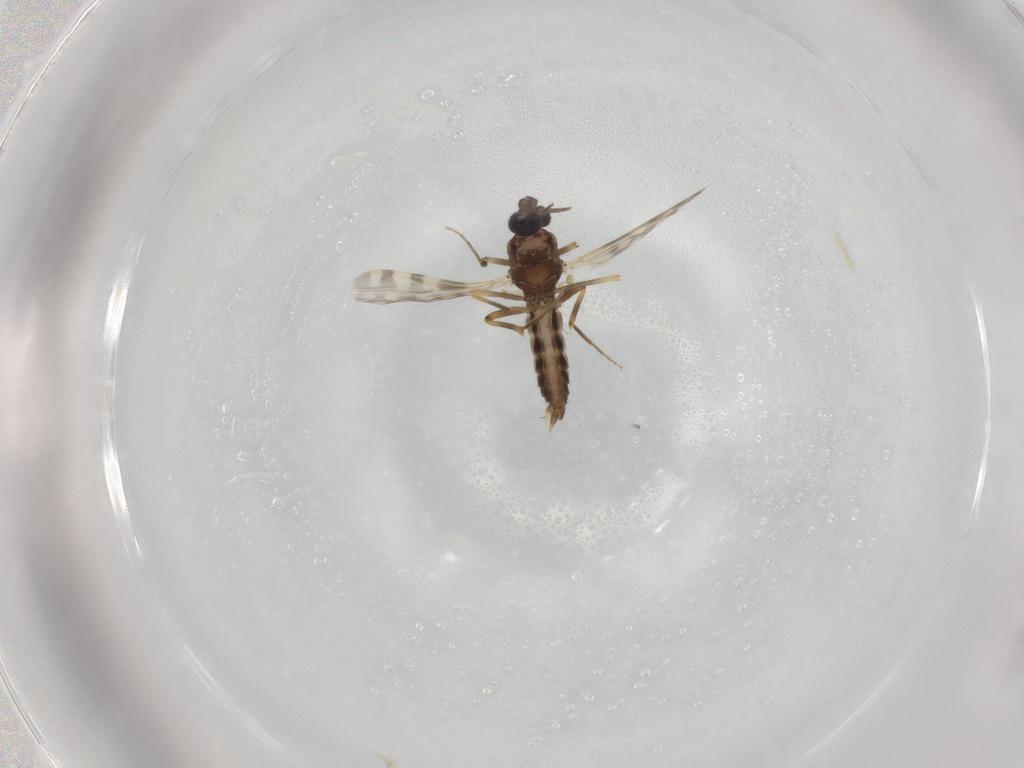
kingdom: Animalia
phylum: Arthropoda
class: Insecta
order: Diptera
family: Ceratopogonidae
